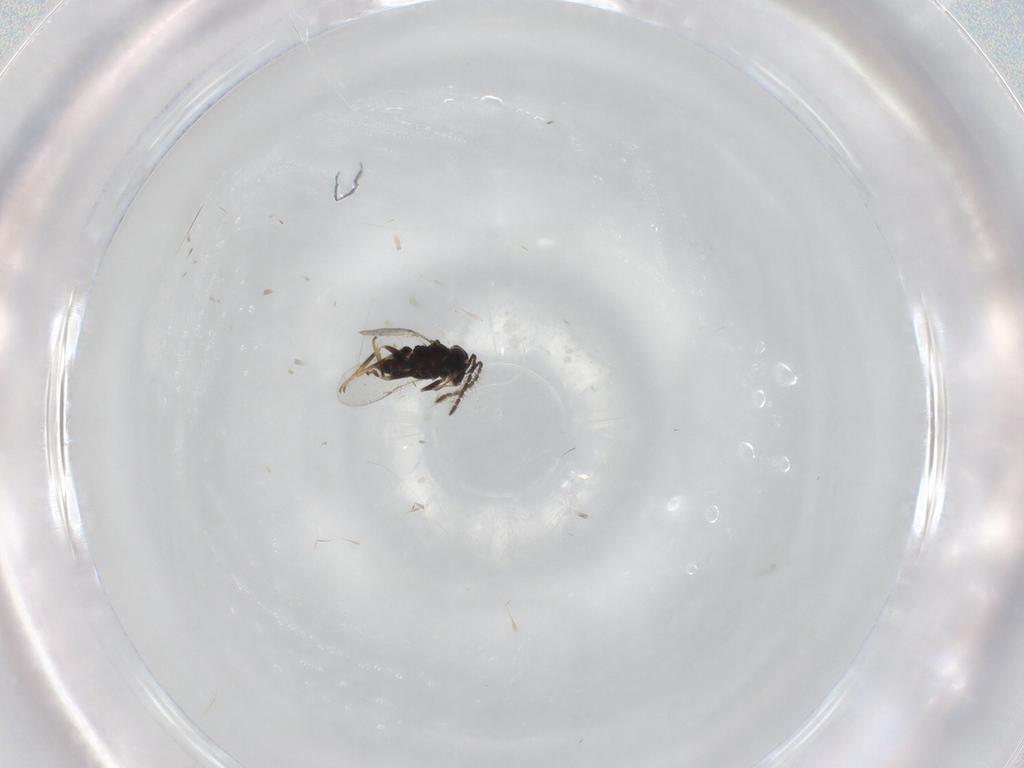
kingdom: Animalia
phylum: Arthropoda
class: Insecta
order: Hymenoptera
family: Encyrtidae
